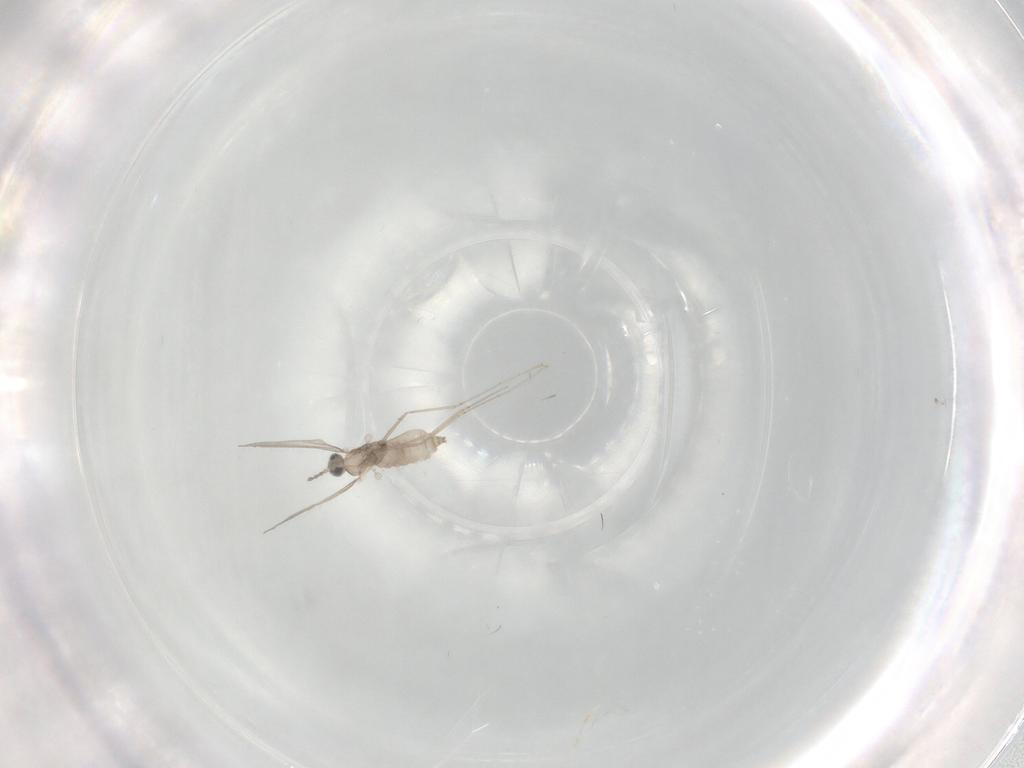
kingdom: Animalia
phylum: Arthropoda
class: Insecta
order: Diptera
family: Cecidomyiidae
